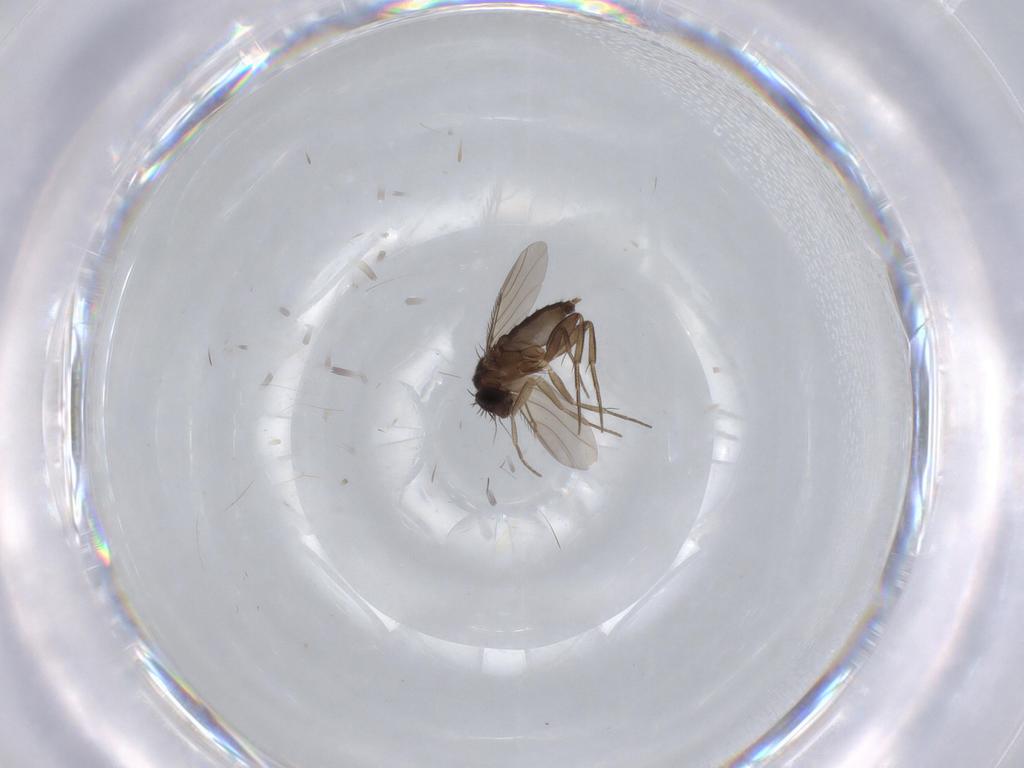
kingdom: Animalia
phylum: Arthropoda
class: Insecta
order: Diptera
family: Phoridae
